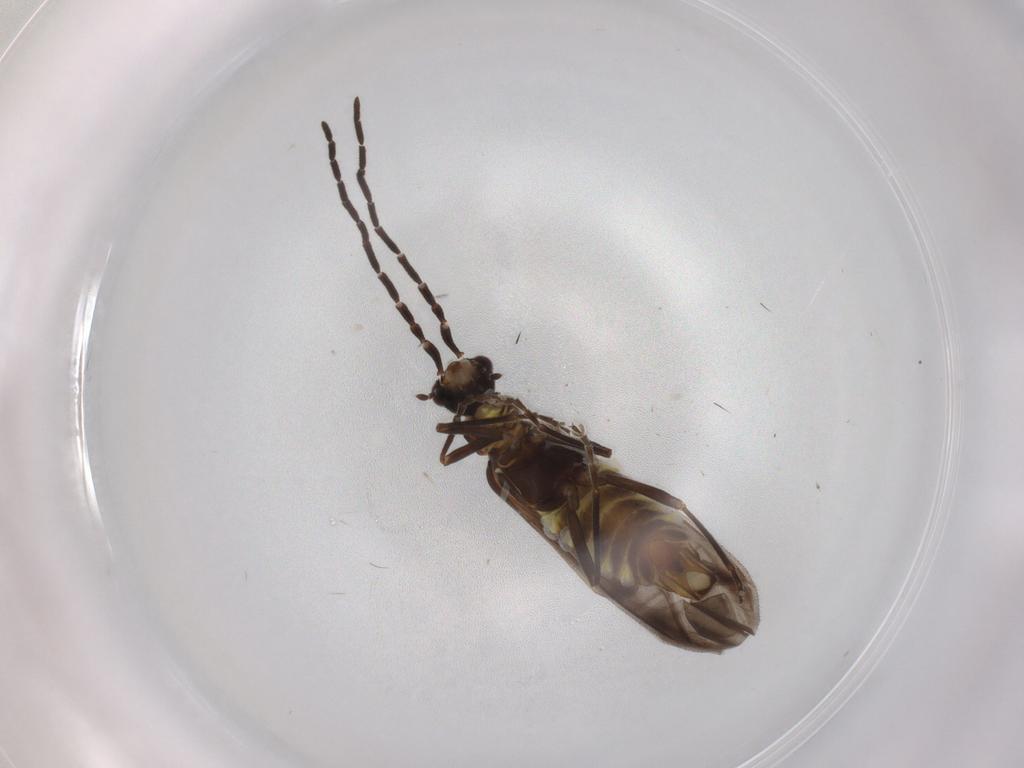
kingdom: Animalia
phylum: Arthropoda
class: Insecta
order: Coleoptera
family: Cantharidae
